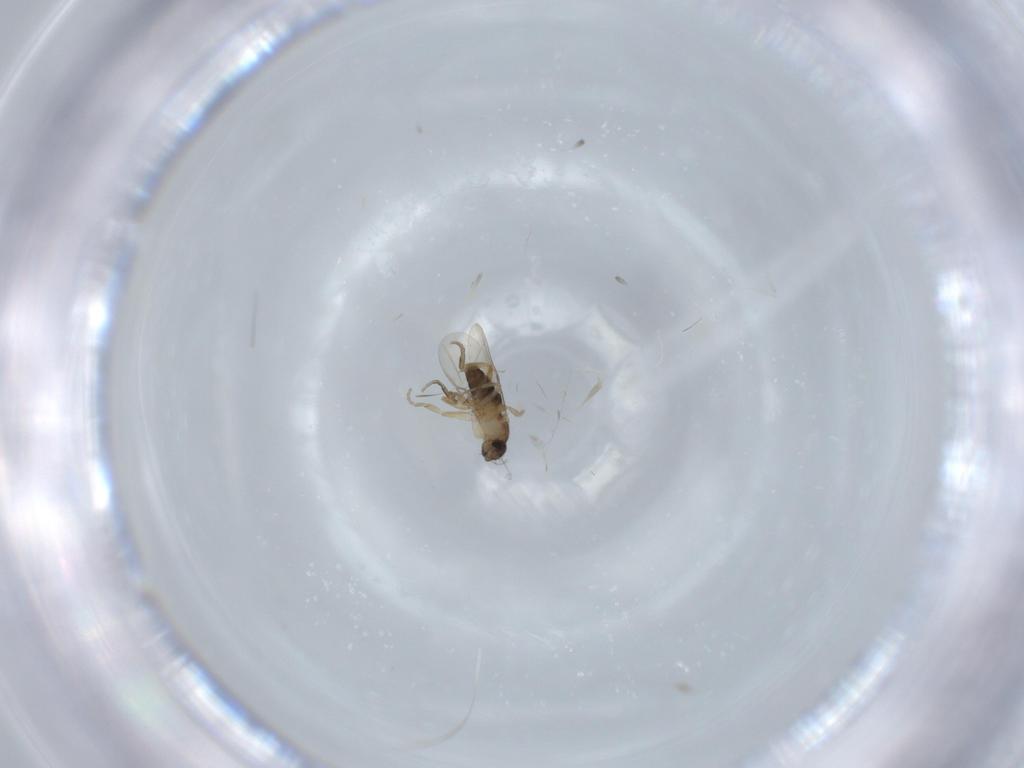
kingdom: Animalia
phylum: Arthropoda
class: Insecta
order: Diptera
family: Phoridae
